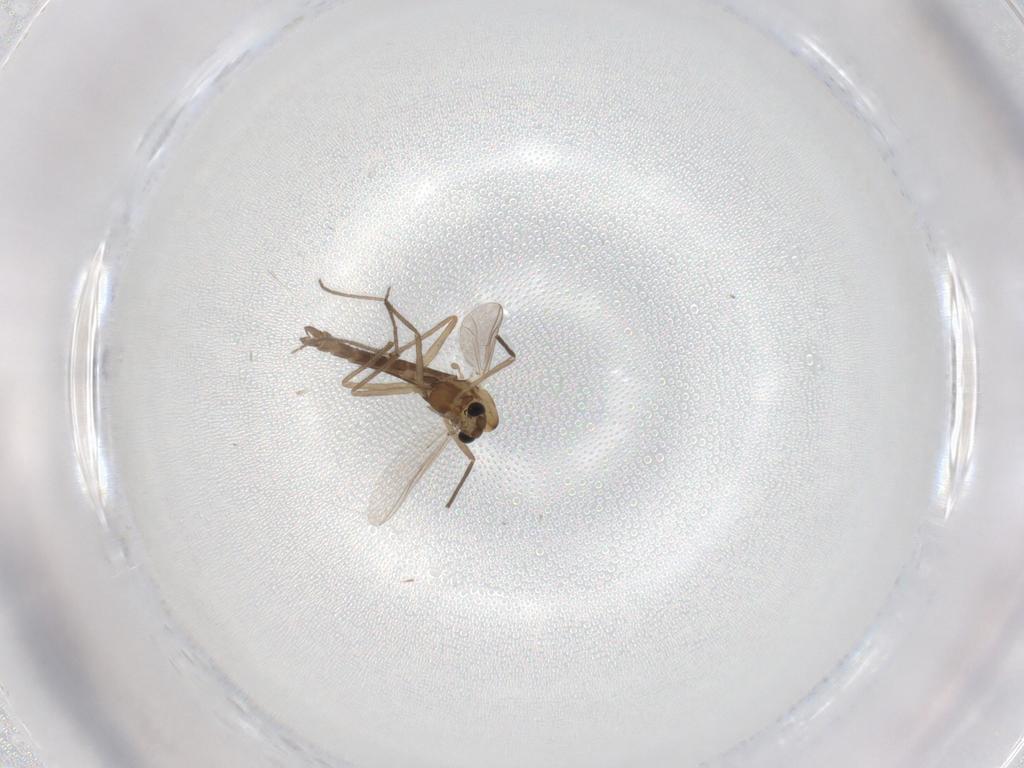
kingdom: Animalia
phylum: Arthropoda
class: Insecta
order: Diptera
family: Chironomidae
